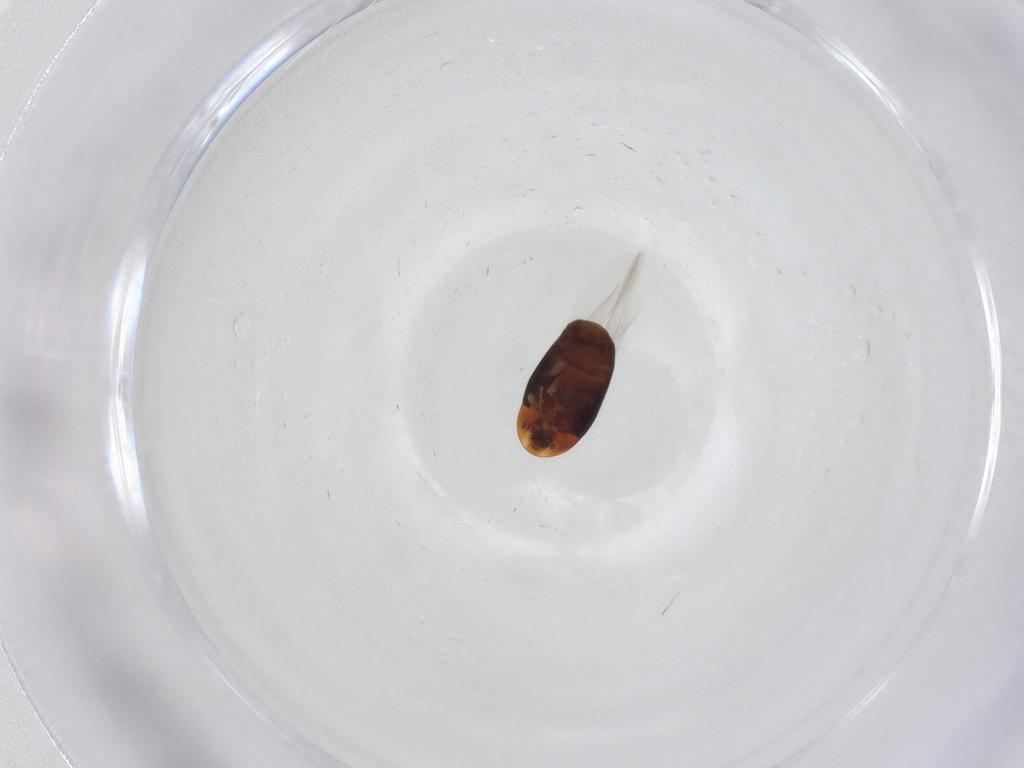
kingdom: Animalia
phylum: Arthropoda
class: Insecta
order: Coleoptera
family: Corylophidae
